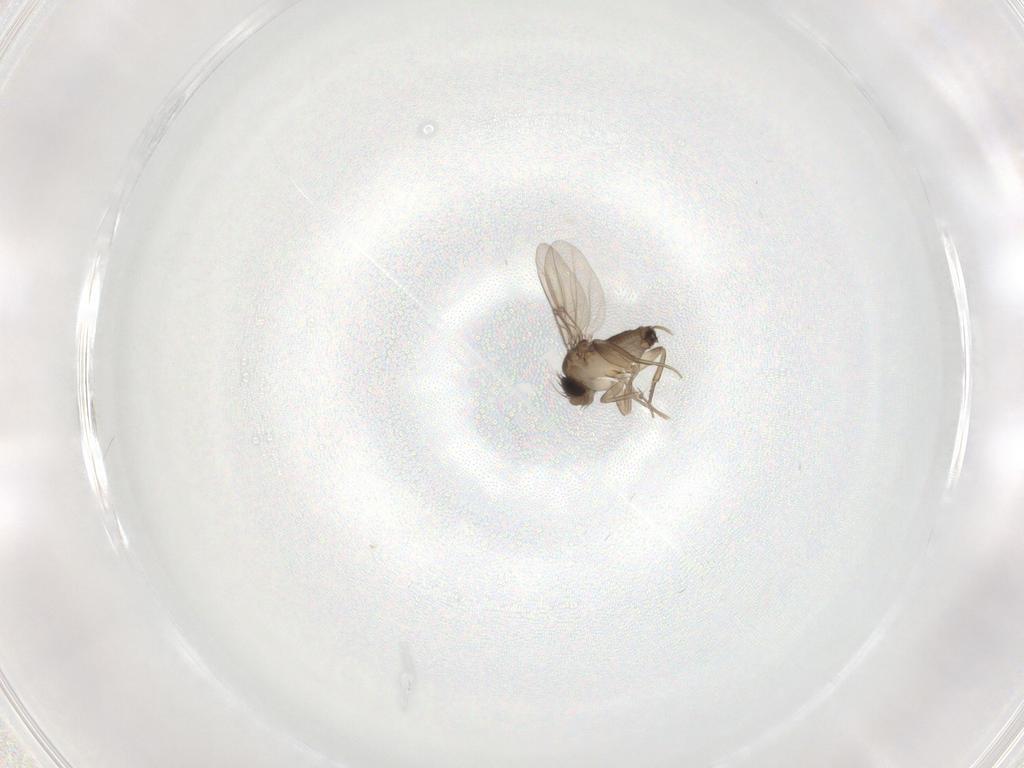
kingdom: Animalia
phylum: Arthropoda
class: Insecta
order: Diptera
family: Phoridae
